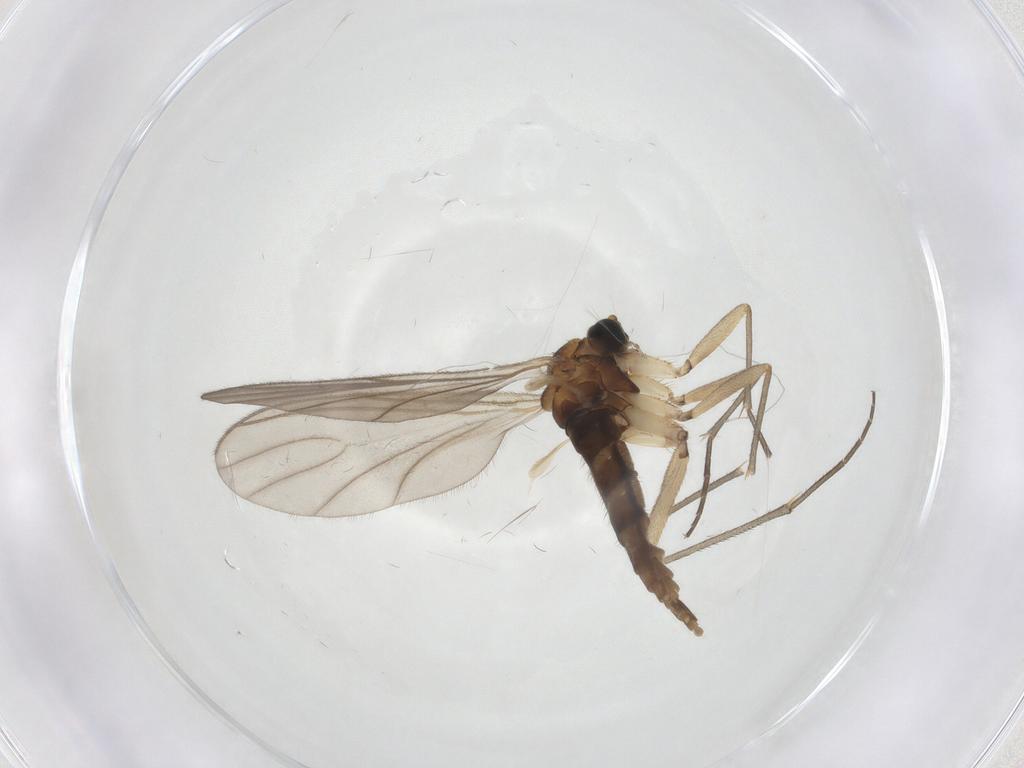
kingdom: Animalia
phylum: Arthropoda
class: Insecta
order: Diptera
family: Sciaridae
